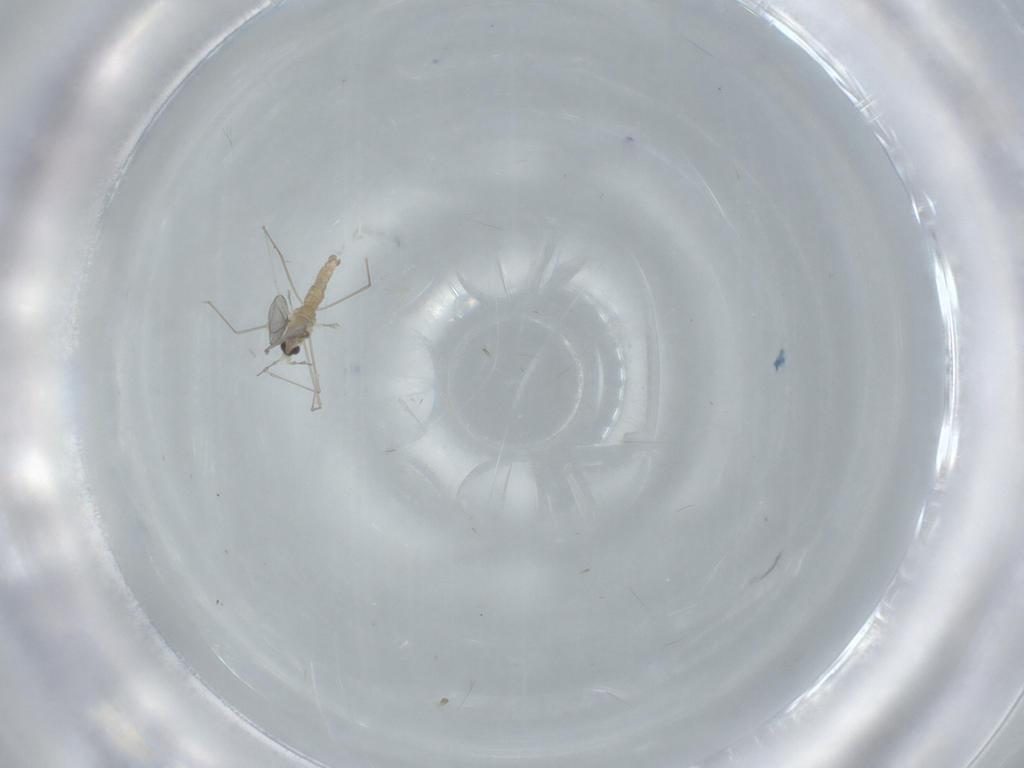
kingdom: Animalia
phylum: Arthropoda
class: Insecta
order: Diptera
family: Cecidomyiidae
